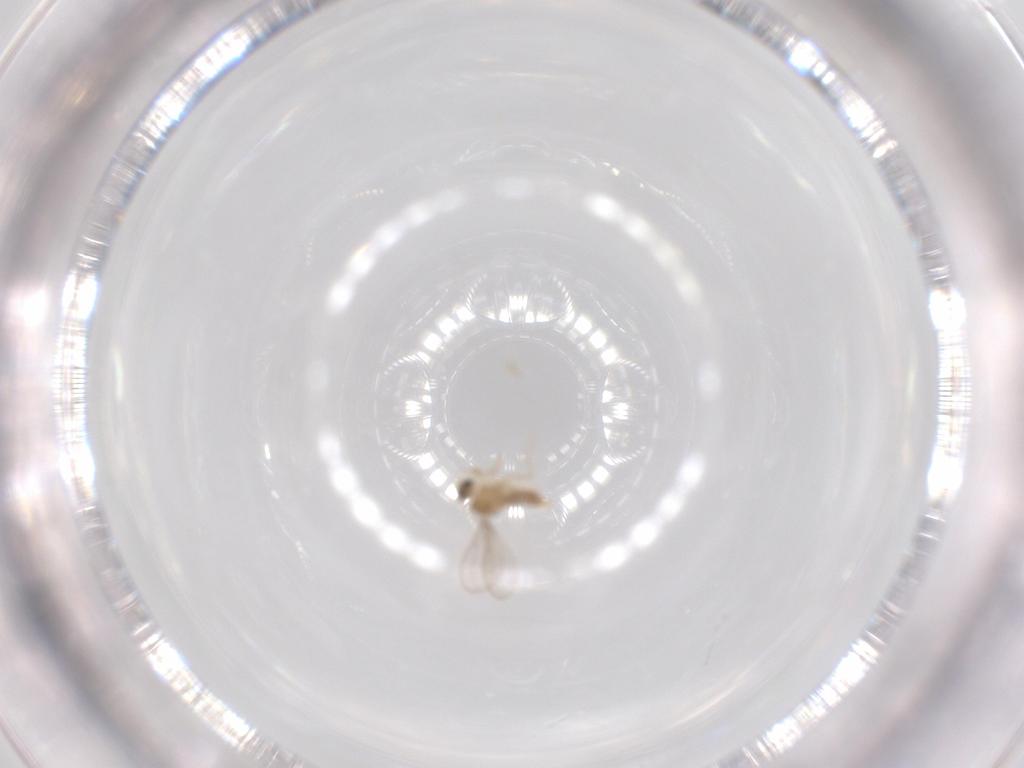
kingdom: Animalia
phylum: Arthropoda
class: Insecta
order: Diptera
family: Cecidomyiidae
